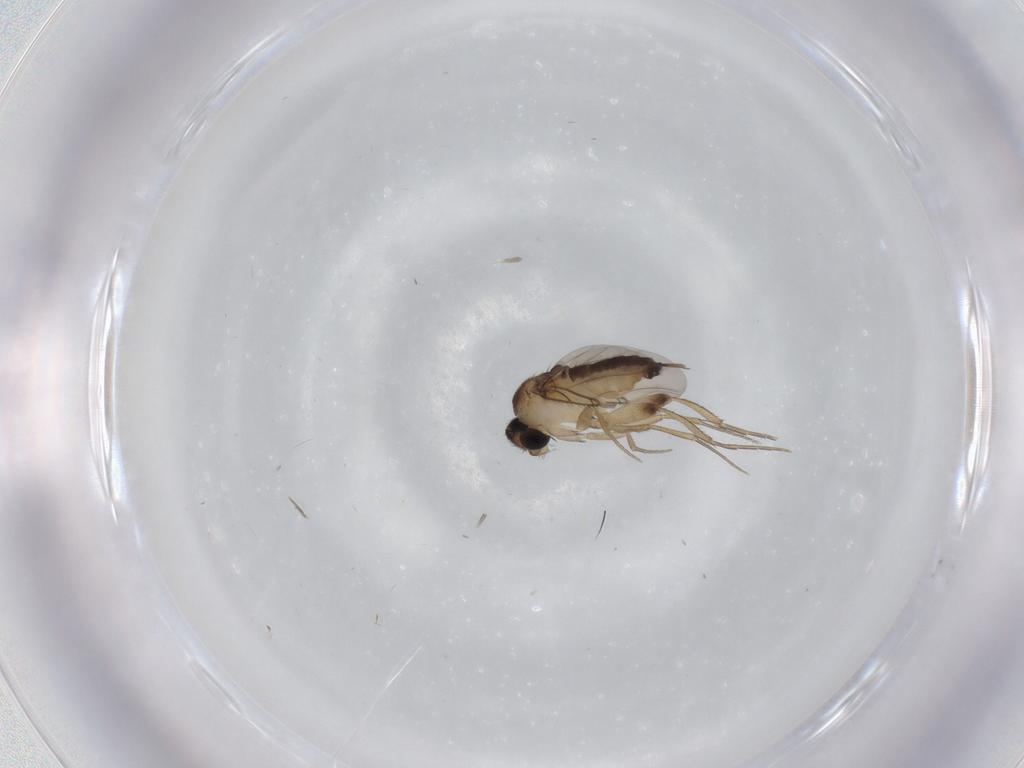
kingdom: Animalia
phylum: Arthropoda
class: Insecta
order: Diptera
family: Phoridae
